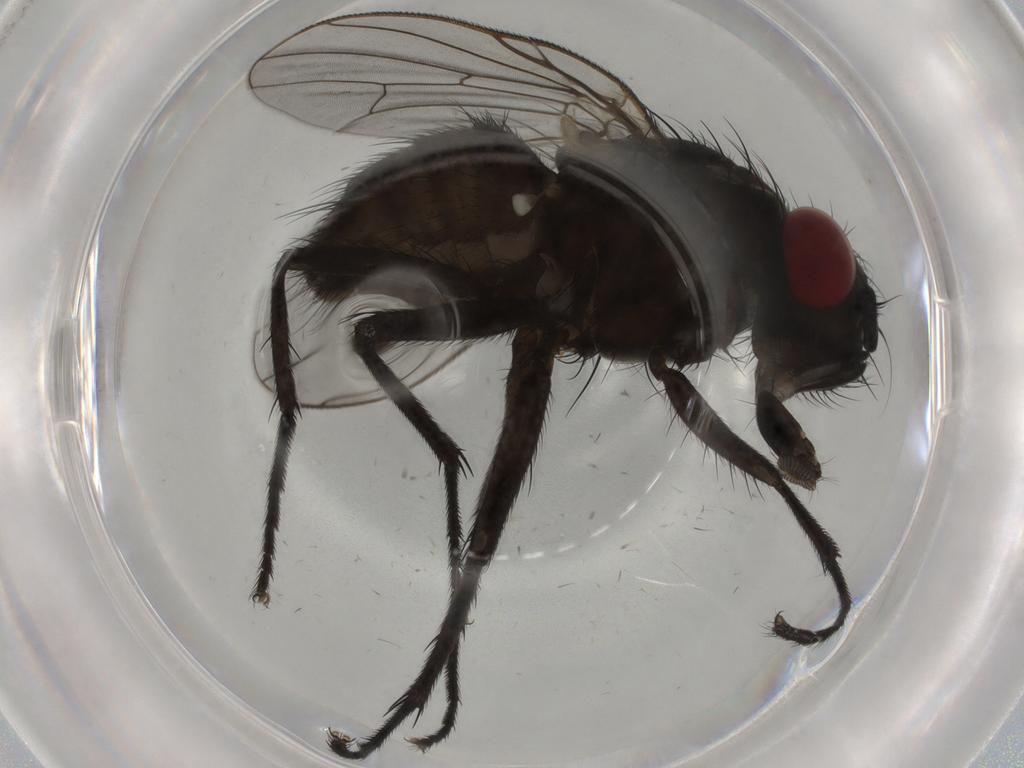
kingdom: Animalia
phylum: Arthropoda
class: Insecta
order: Diptera
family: Muscidae
